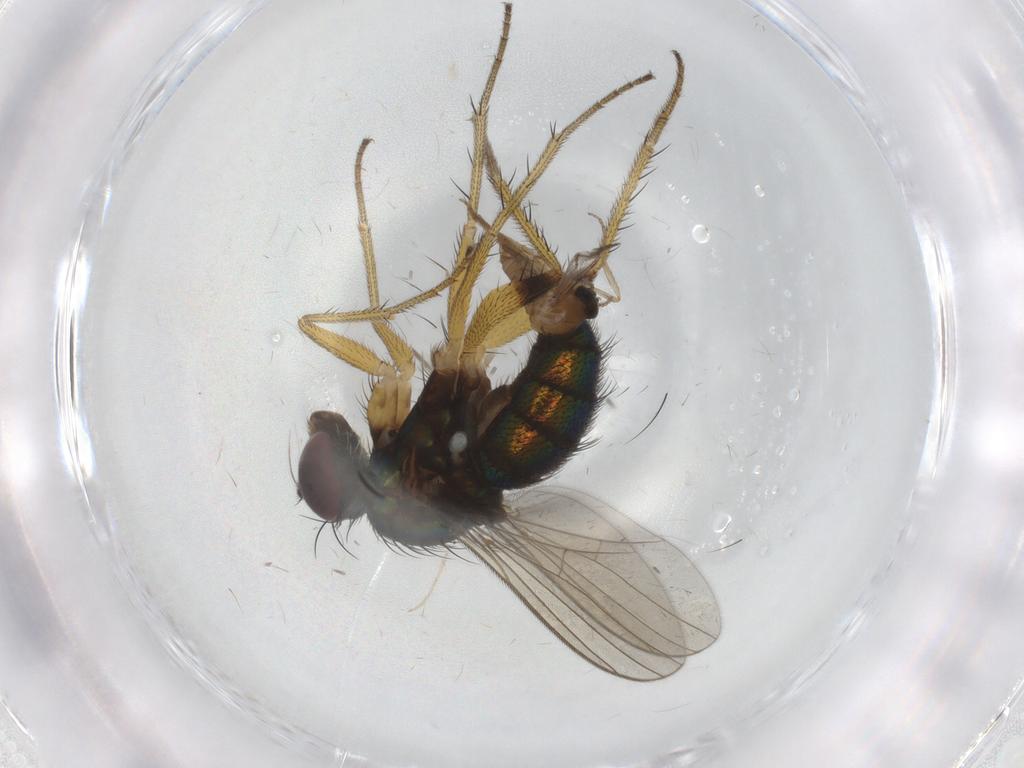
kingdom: Animalia
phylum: Arthropoda
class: Insecta
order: Diptera
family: Dolichopodidae
